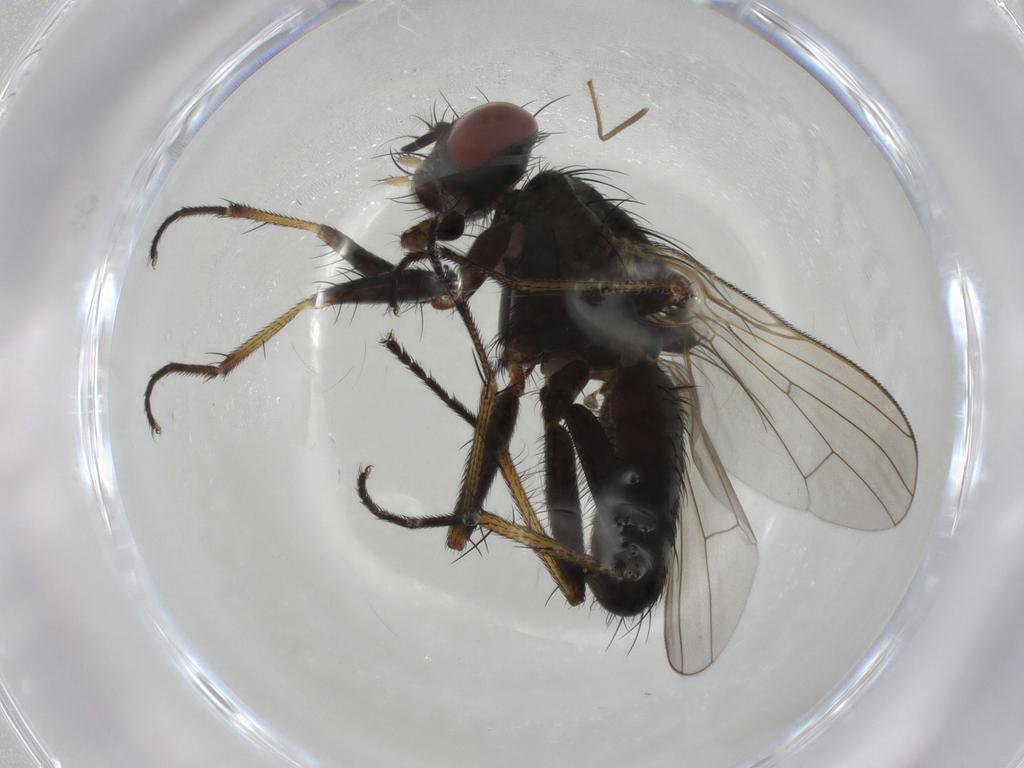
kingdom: Animalia
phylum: Arthropoda
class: Insecta
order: Diptera
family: Muscidae
